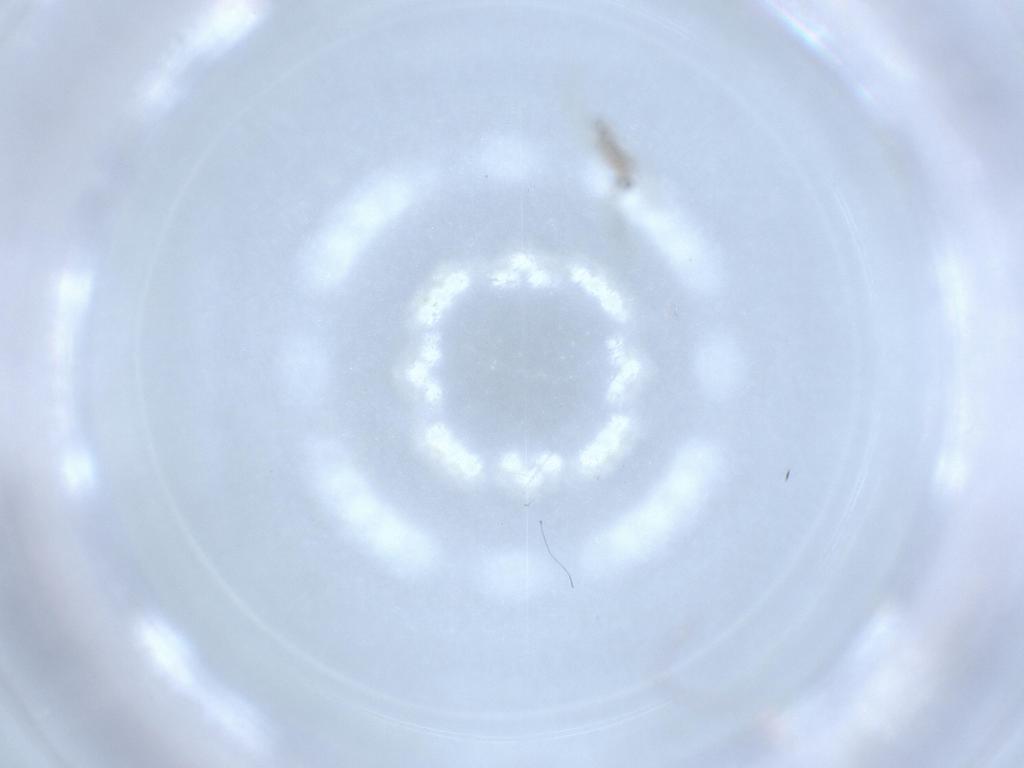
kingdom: Animalia
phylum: Arthropoda
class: Insecta
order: Diptera
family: Cecidomyiidae
